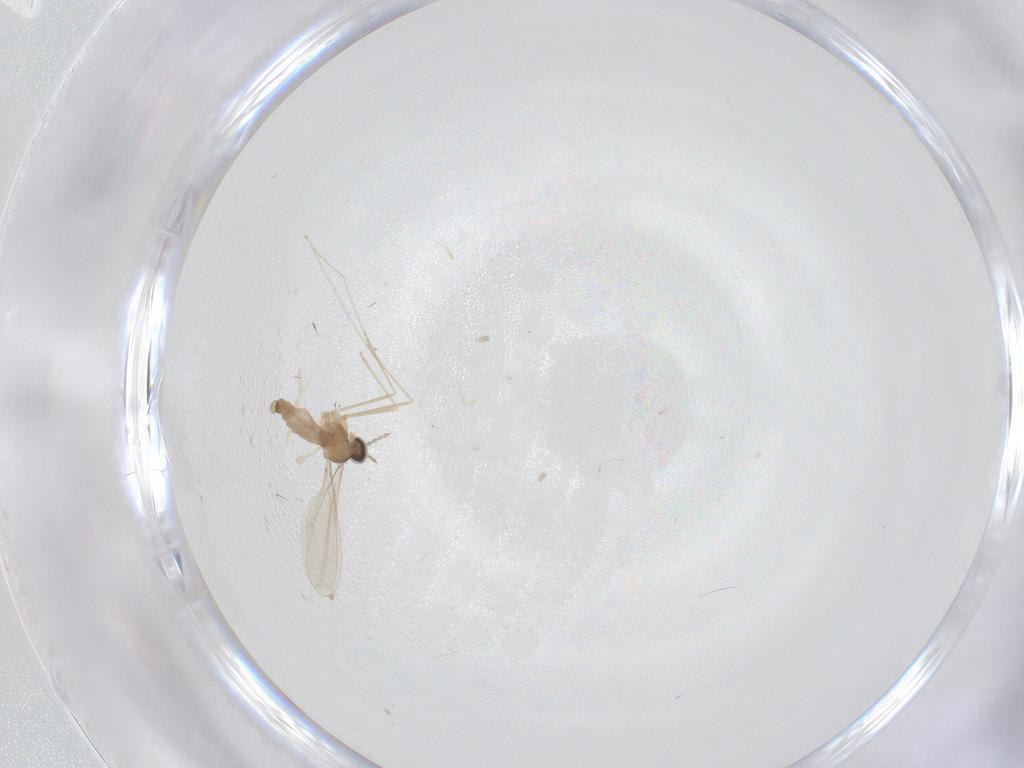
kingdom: Animalia
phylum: Arthropoda
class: Insecta
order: Diptera
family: Cecidomyiidae
